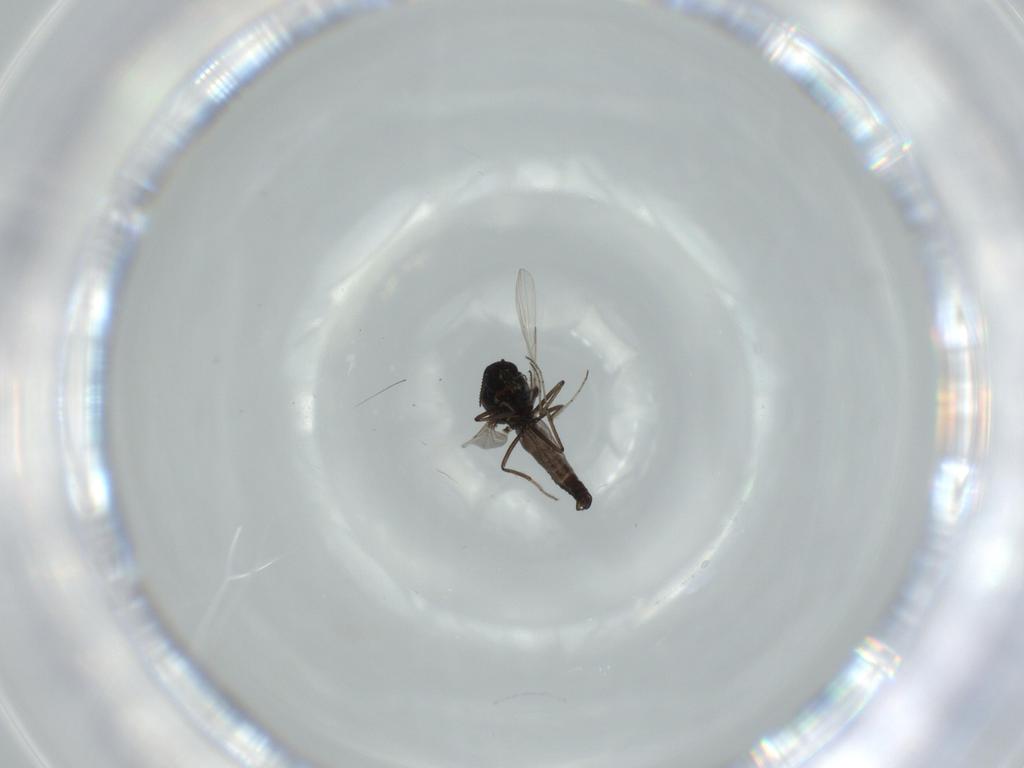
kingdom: Animalia
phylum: Arthropoda
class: Insecta
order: Diptera
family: Chironomidae
